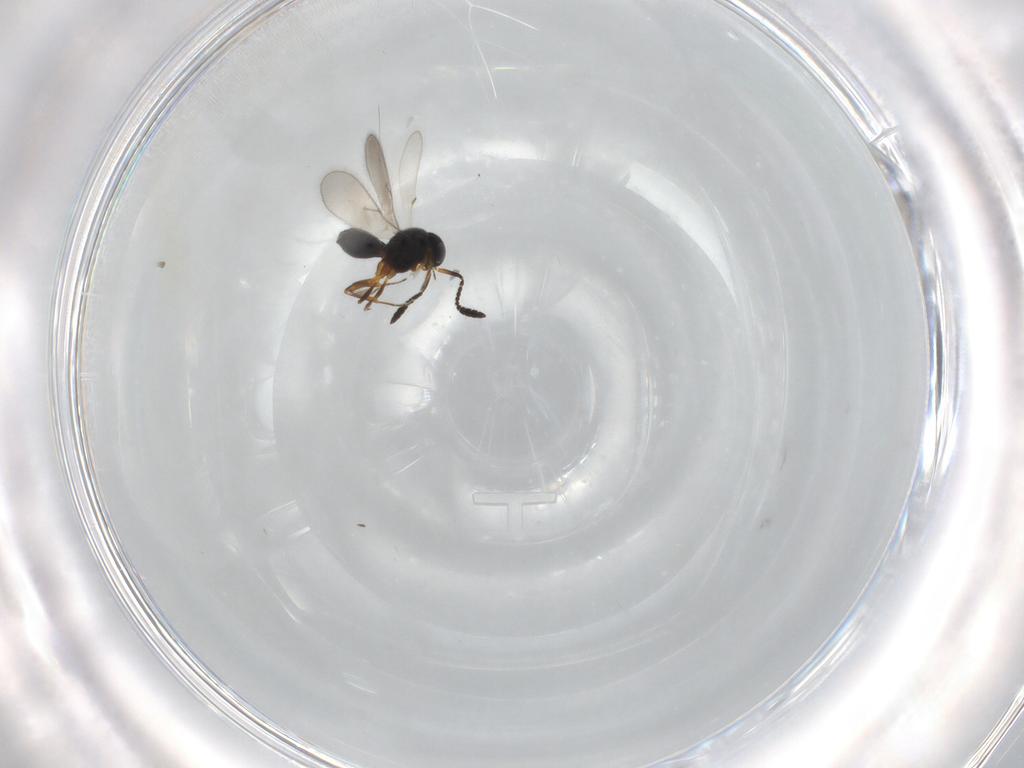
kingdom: Animalia
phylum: Arthropoda
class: Insecta
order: Hymenoptera
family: Scelionidae
